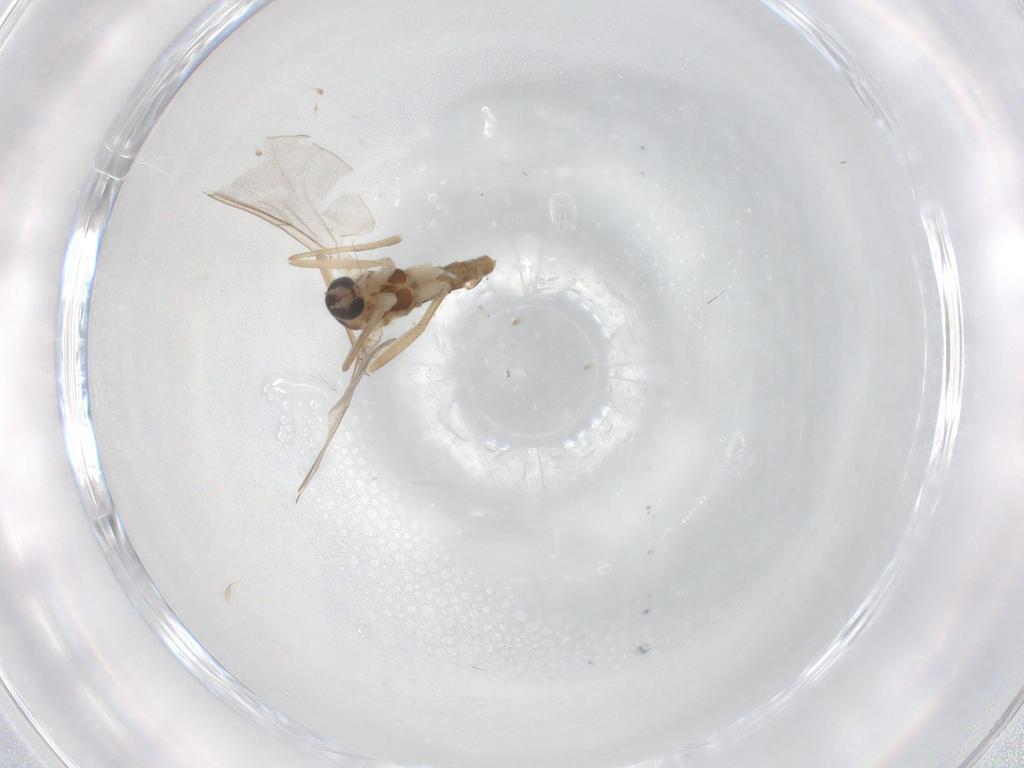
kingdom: Animalia
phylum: Arthropoda
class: Insecta
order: Diptera
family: Cecidomyiidae
